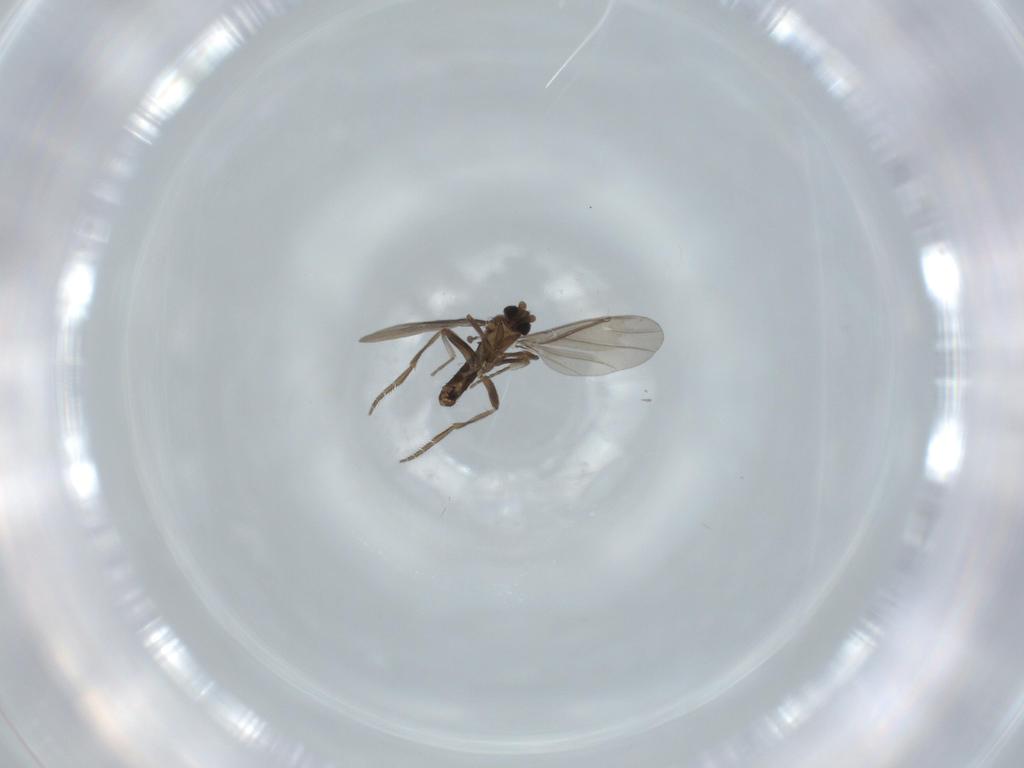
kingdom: Animalia
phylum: Arthropoda
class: Insecta
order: Diptera
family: Phoridae
